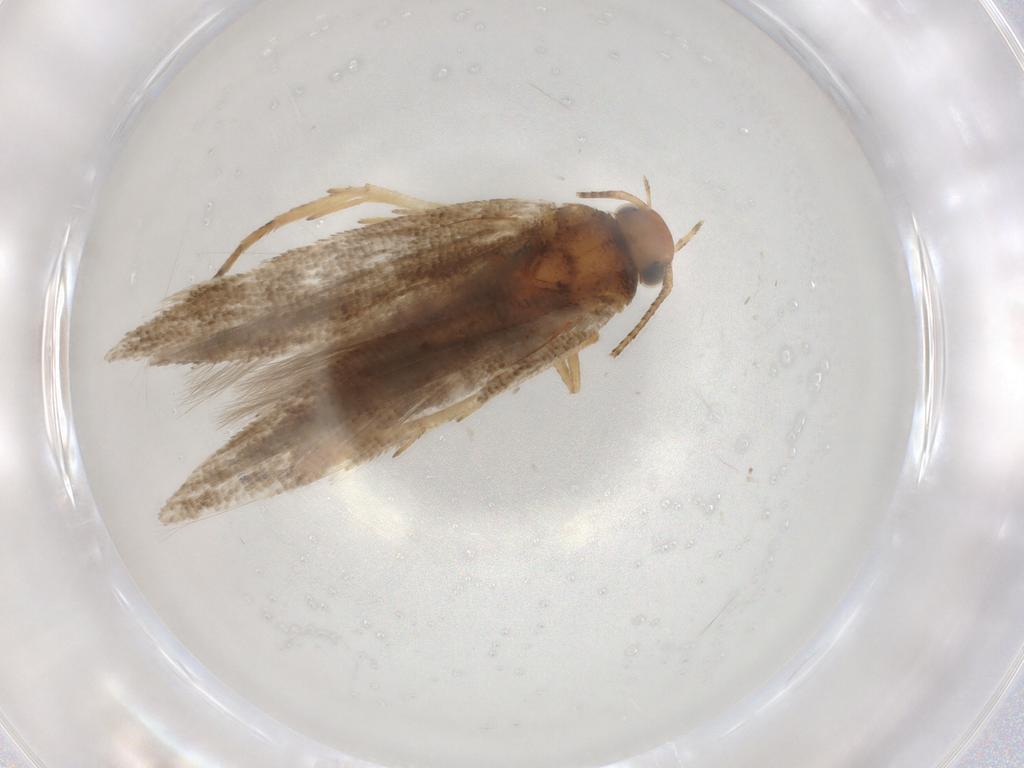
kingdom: Animalia
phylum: Arthropoda
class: Insecta
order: Lepidoptera
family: Gelechiidae
